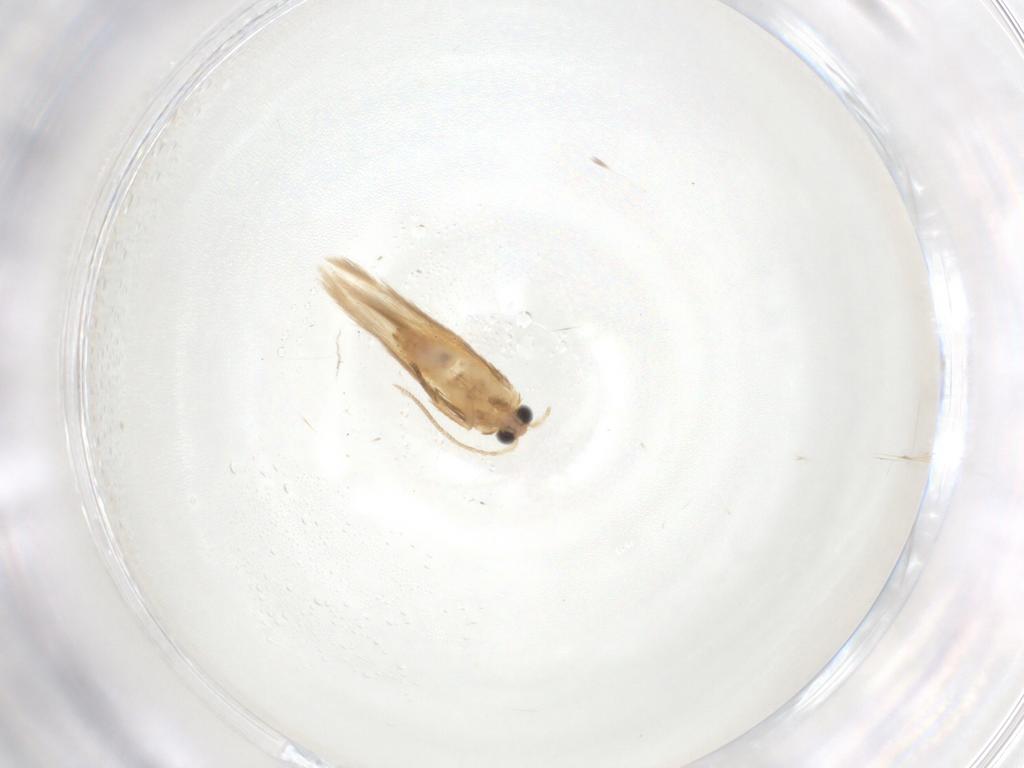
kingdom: Animalia
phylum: Arthropoda
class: Insecta
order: Lepidoptera
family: Nepticulidae
